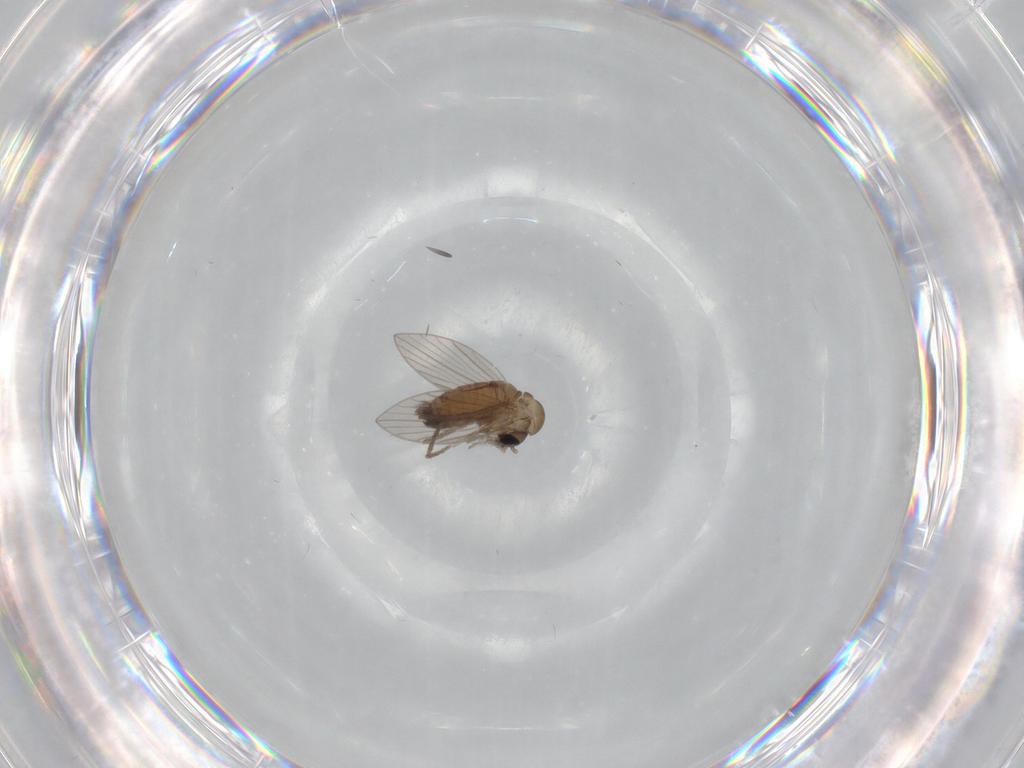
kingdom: Animalia
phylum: Arthropoda
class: Insecta
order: Diptera
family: Psychodidae
